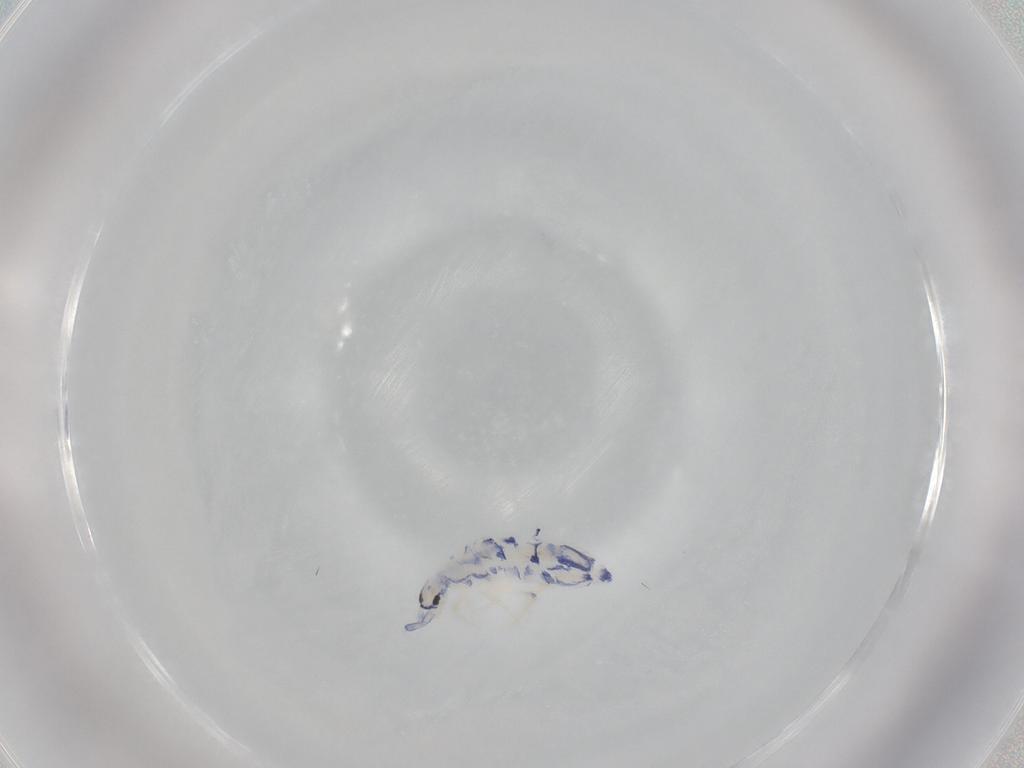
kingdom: Animalia
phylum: Arthropoda
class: Collembola
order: Entomobryomorpha
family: Entomobryidae
